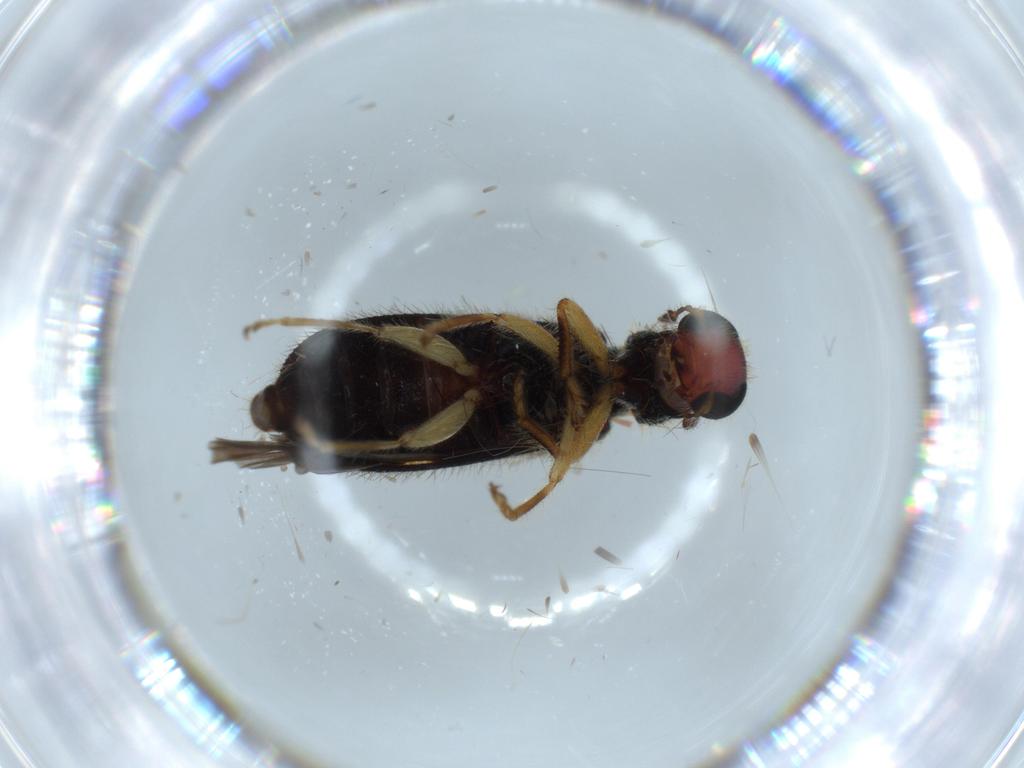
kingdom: Animalia
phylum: Arthropoda
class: Insecta
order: Coleoptera
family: Cleridae
